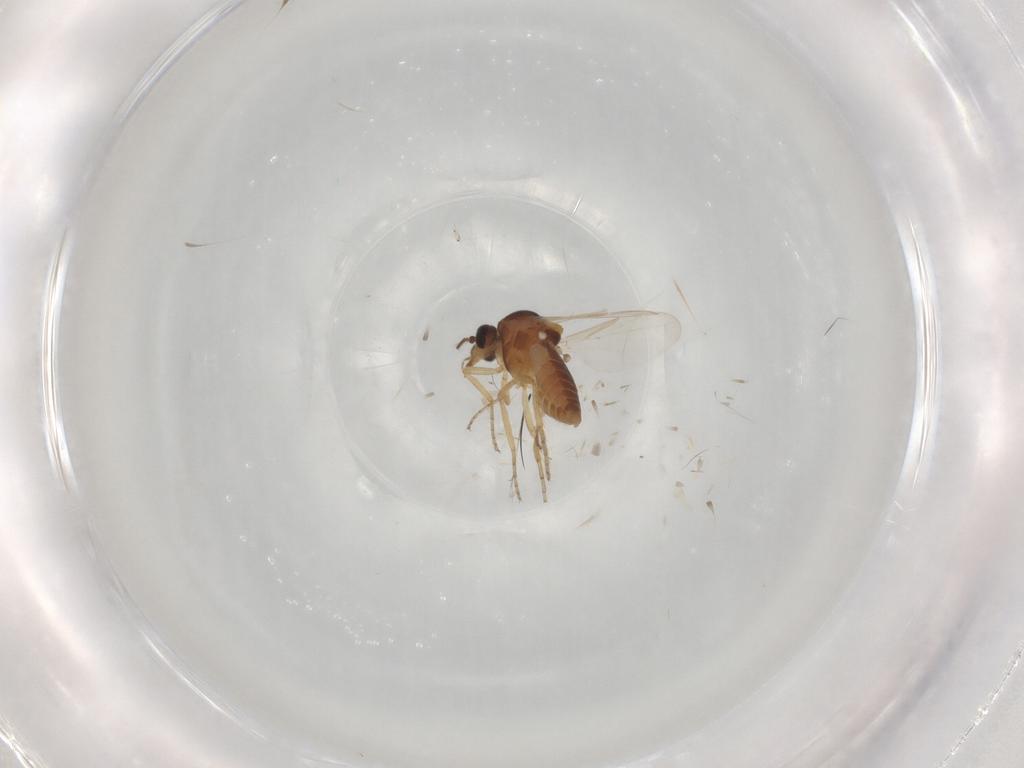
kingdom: Animalia
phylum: Arthropoda
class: Insecta
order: Diptera
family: Ceratopogonidae
